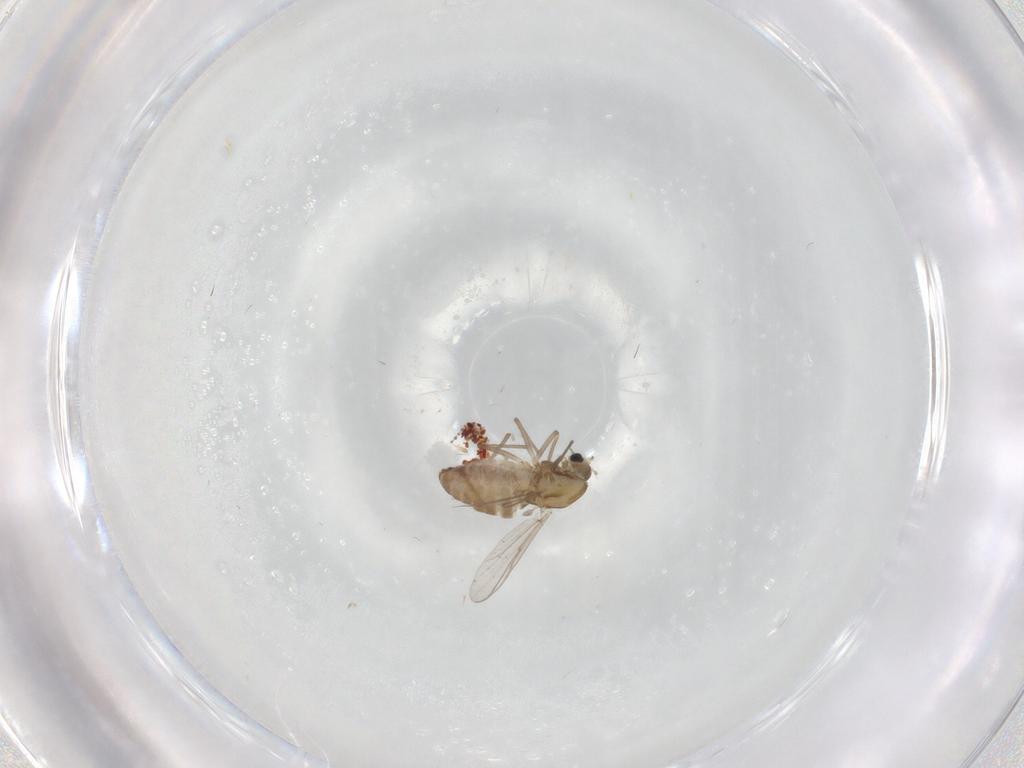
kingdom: Animalia
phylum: Arthropoda
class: Insecta
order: Diptera
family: Chironomidae
